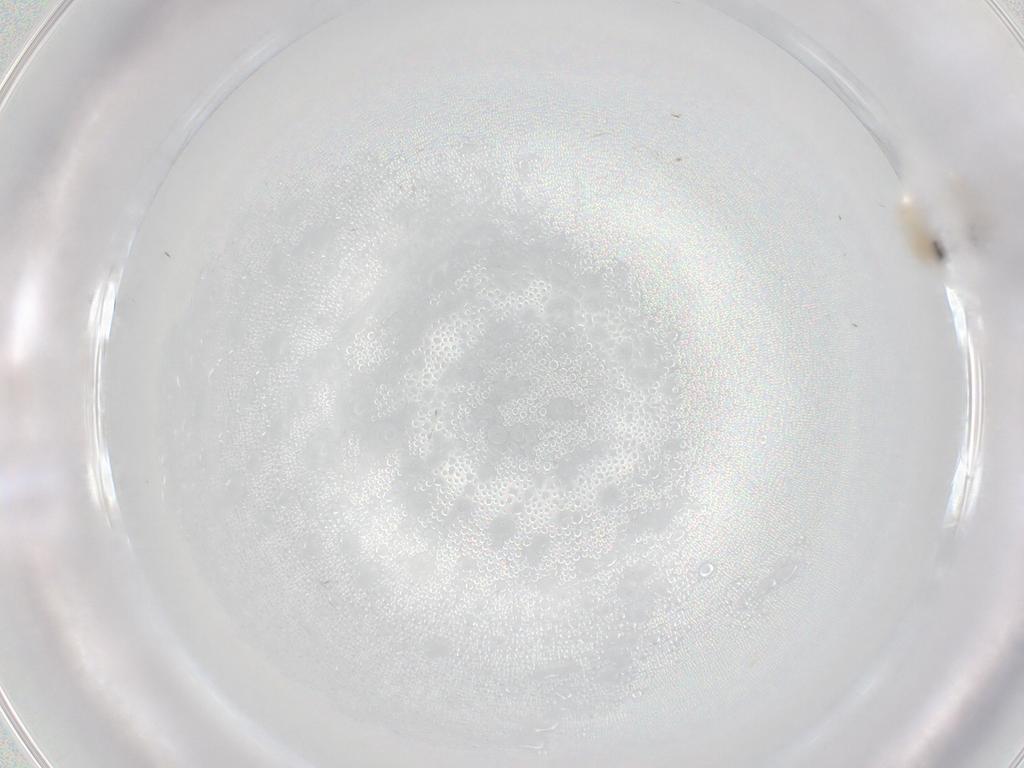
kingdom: Animalia
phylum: Arthropoda
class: Insecta
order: Diptera
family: Cecidomyiidae
